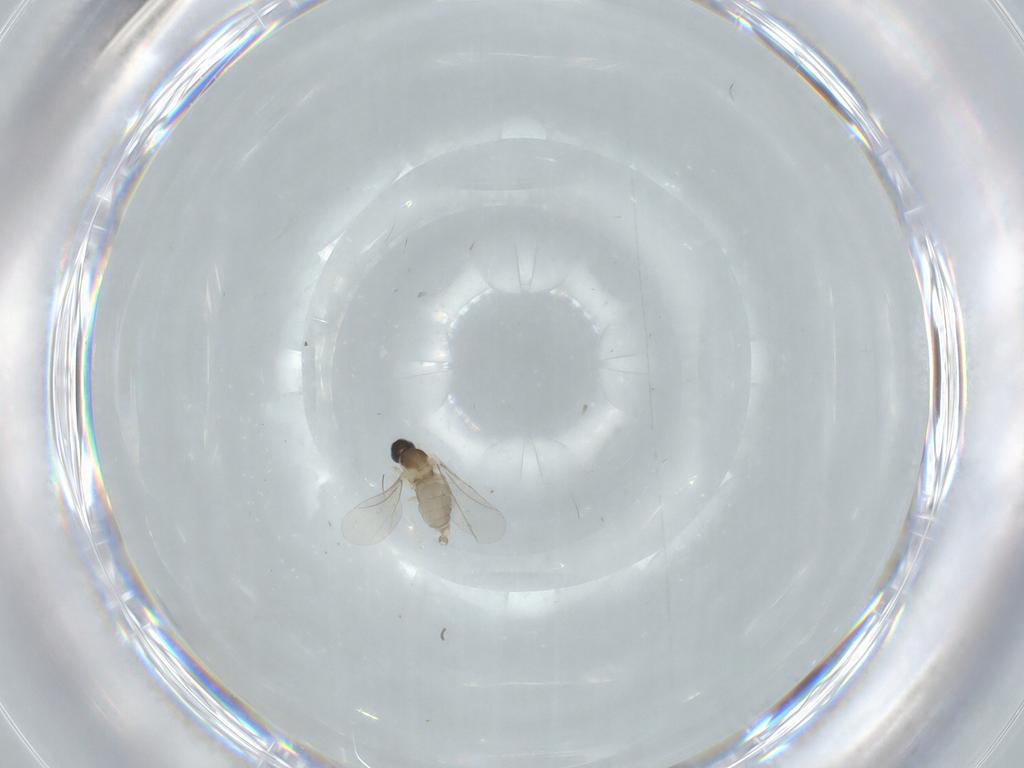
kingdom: Animalia
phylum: Arthropoda
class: Insecta
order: Diptera
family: Cecidomyiidae
